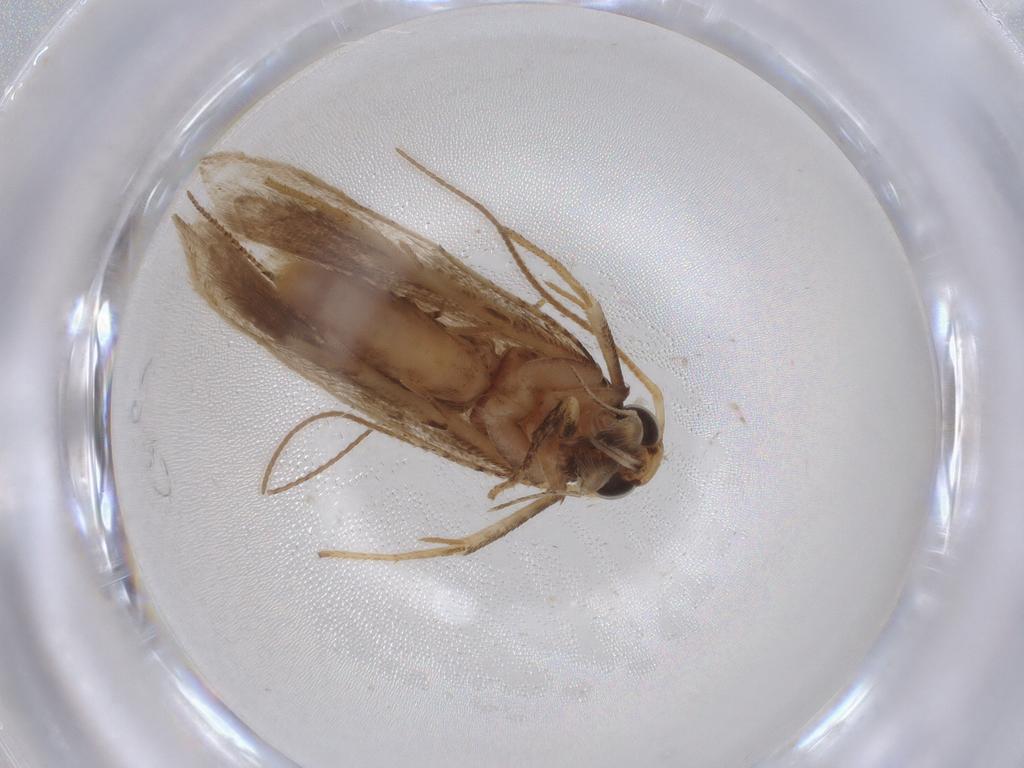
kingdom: Animalia
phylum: Arthropoda
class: Insecta
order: Lepidoptera
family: Gelechiidae
